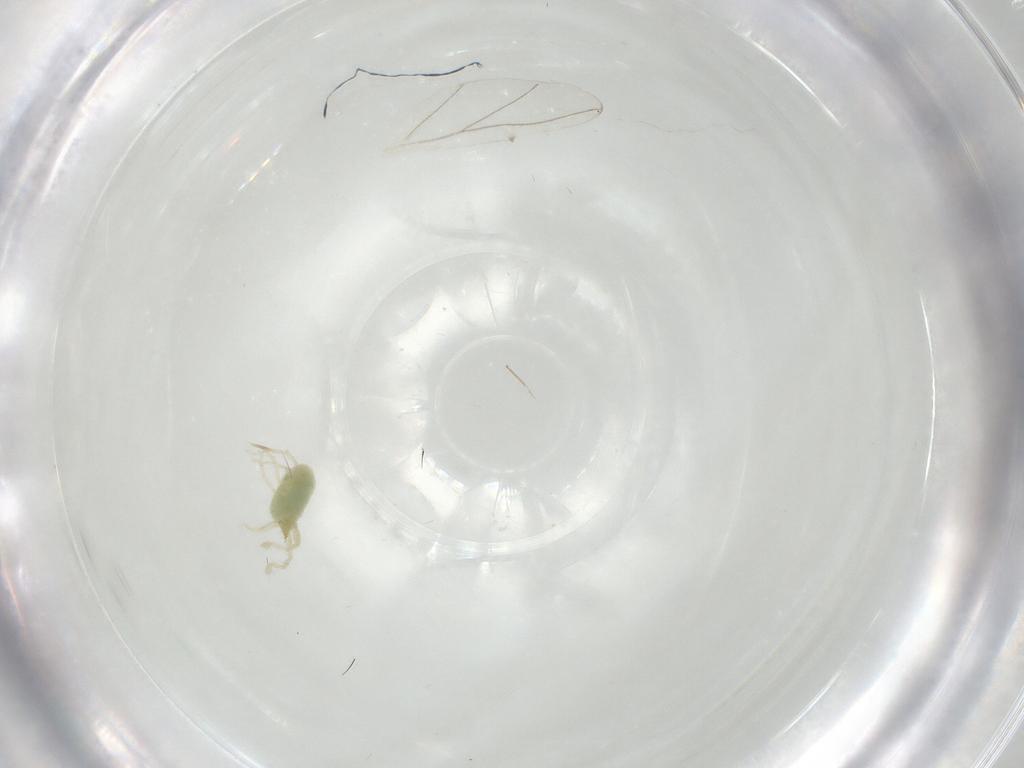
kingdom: Animalia
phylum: Arthropoda
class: Arachnida
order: Trombidiformes
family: Erythraeidae
